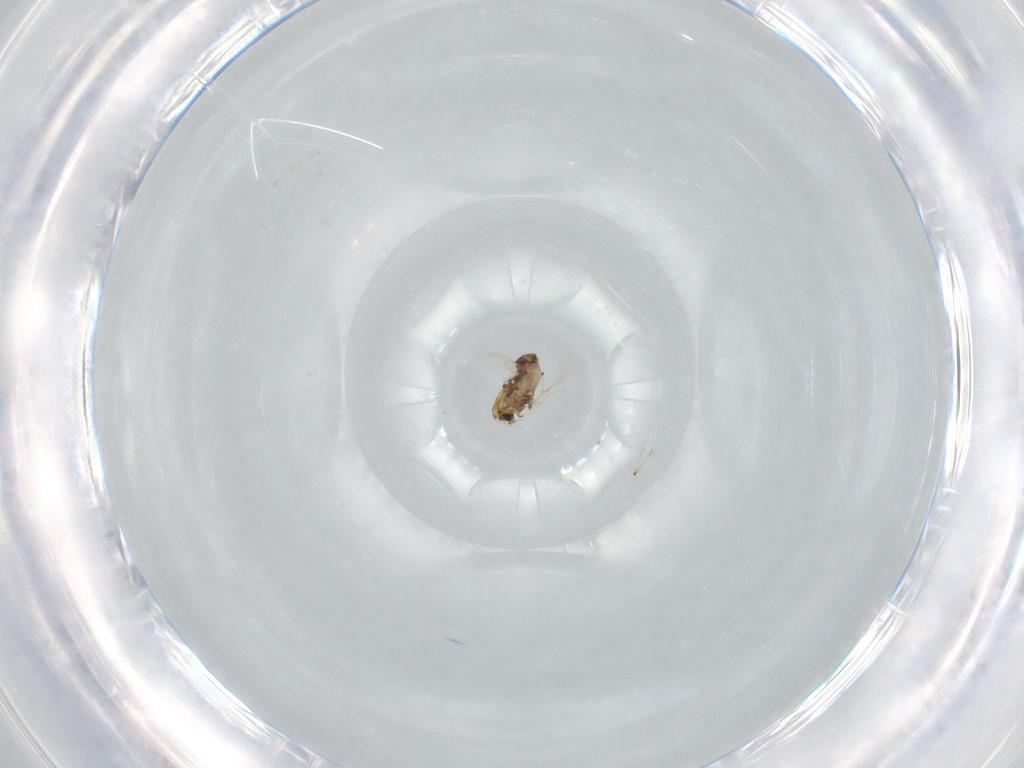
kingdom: Animalia
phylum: Arthropoda
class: Insecta
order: Diptera
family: Chironomidae
